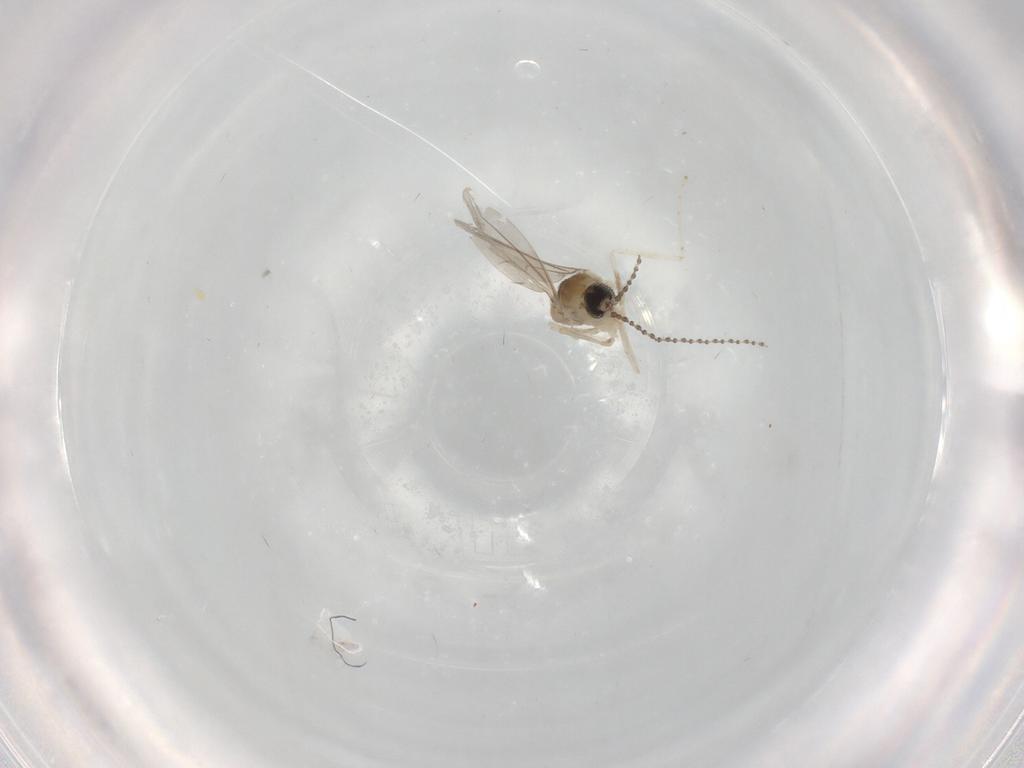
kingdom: Animalia
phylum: Arthropoda
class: Insecta
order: Diptera
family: Cecidomyiidae
